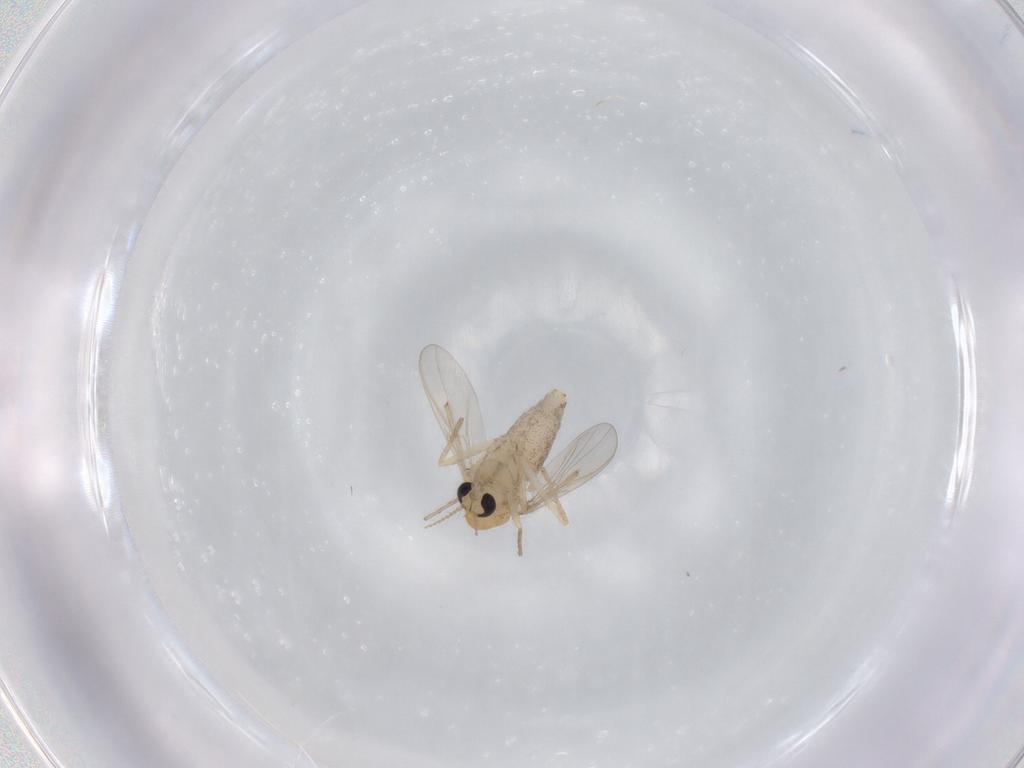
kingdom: Animalia
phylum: Arthropoda
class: Insecta
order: Diptera
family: Chironomidae
